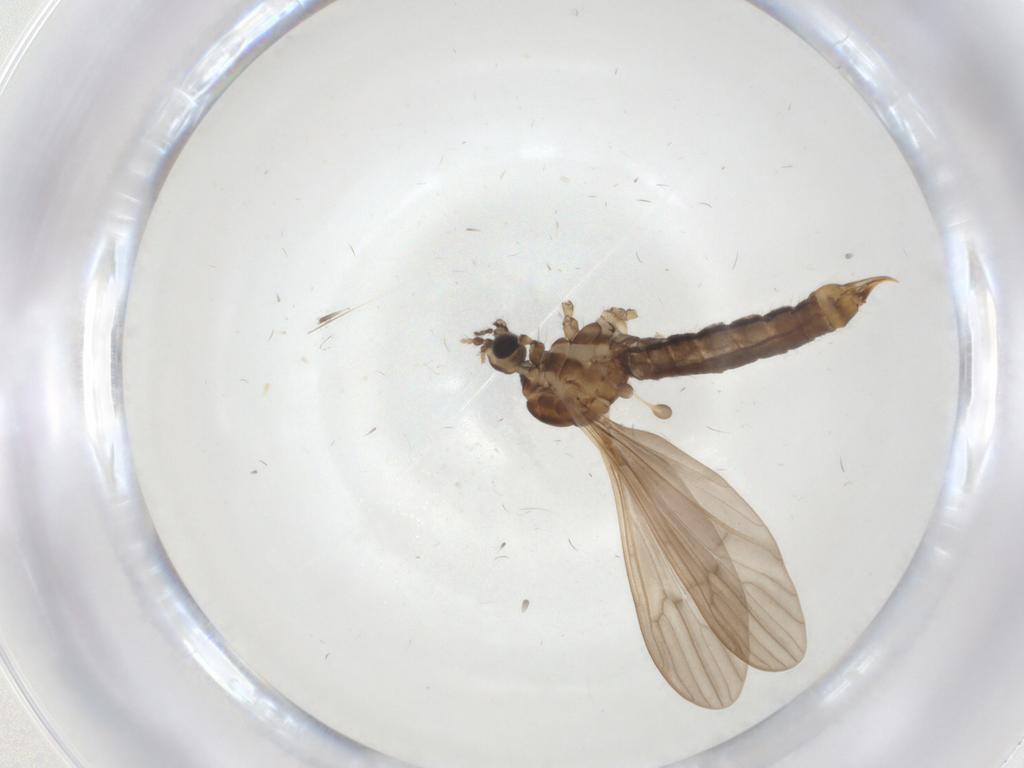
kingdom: Animalia
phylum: Arthropoda
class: Insecta
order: Diptera
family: Limoniidae
